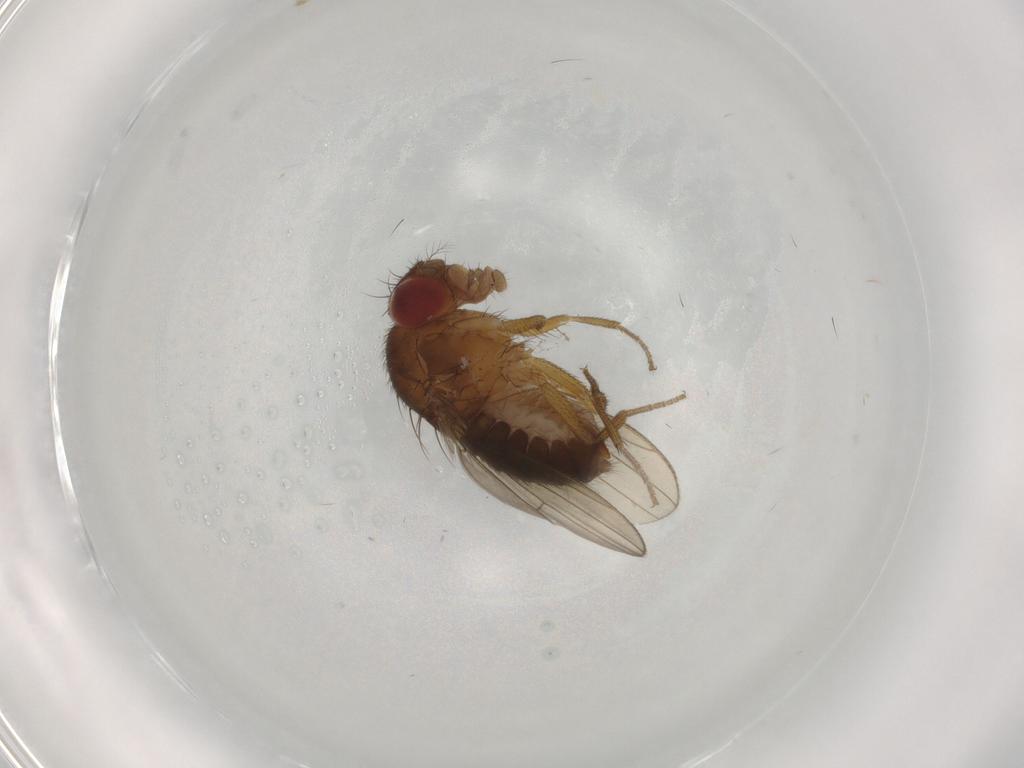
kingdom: Animalia
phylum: Arthropoda
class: Insecta
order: Diptera
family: Drosophilidae
